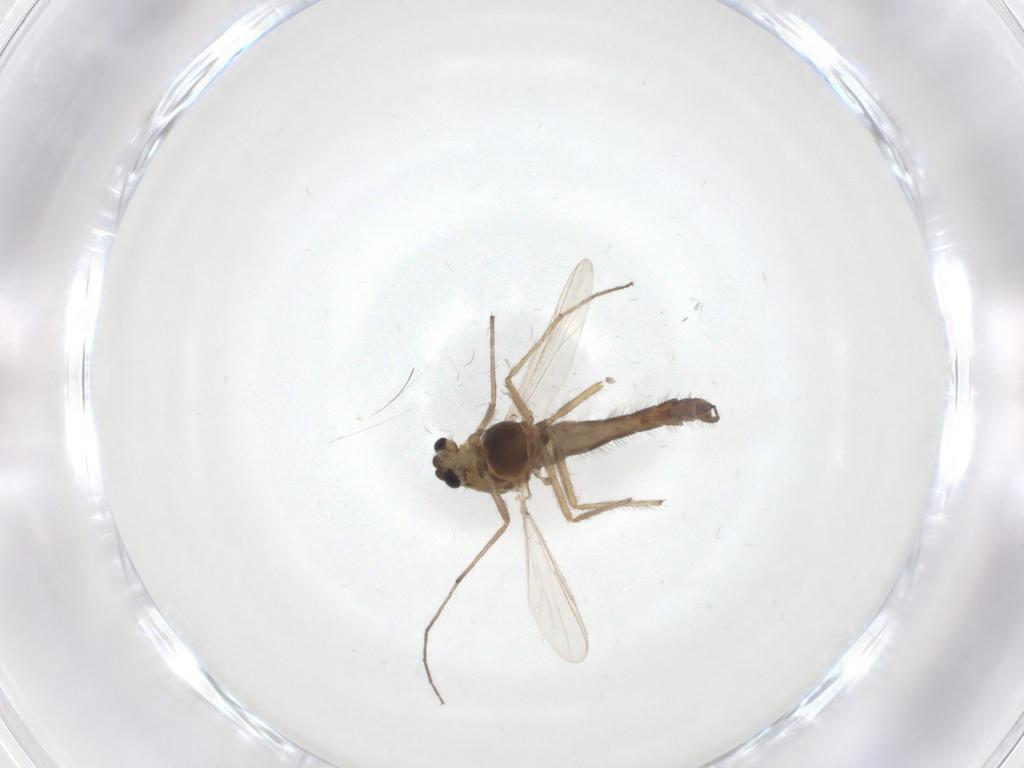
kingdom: Animalia
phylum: Arthropoda
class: Insecta
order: Diptera
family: Chironomidae
